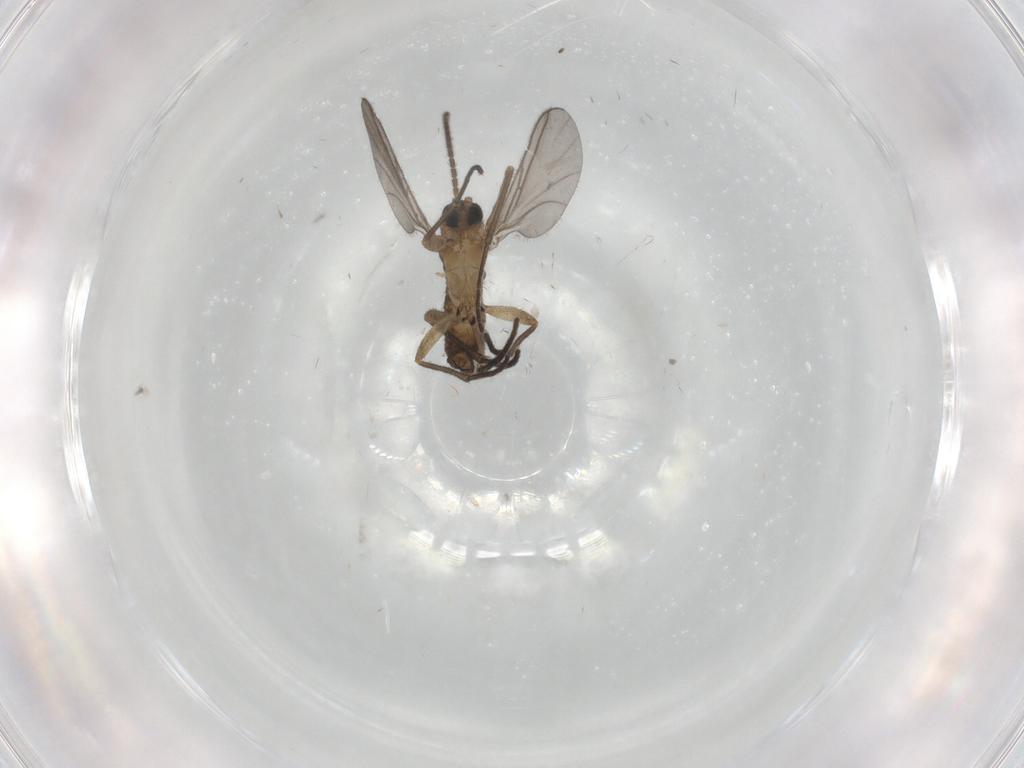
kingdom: Animalia
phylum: Arthropoda
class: Insecta
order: Diptera
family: Sciaridae
